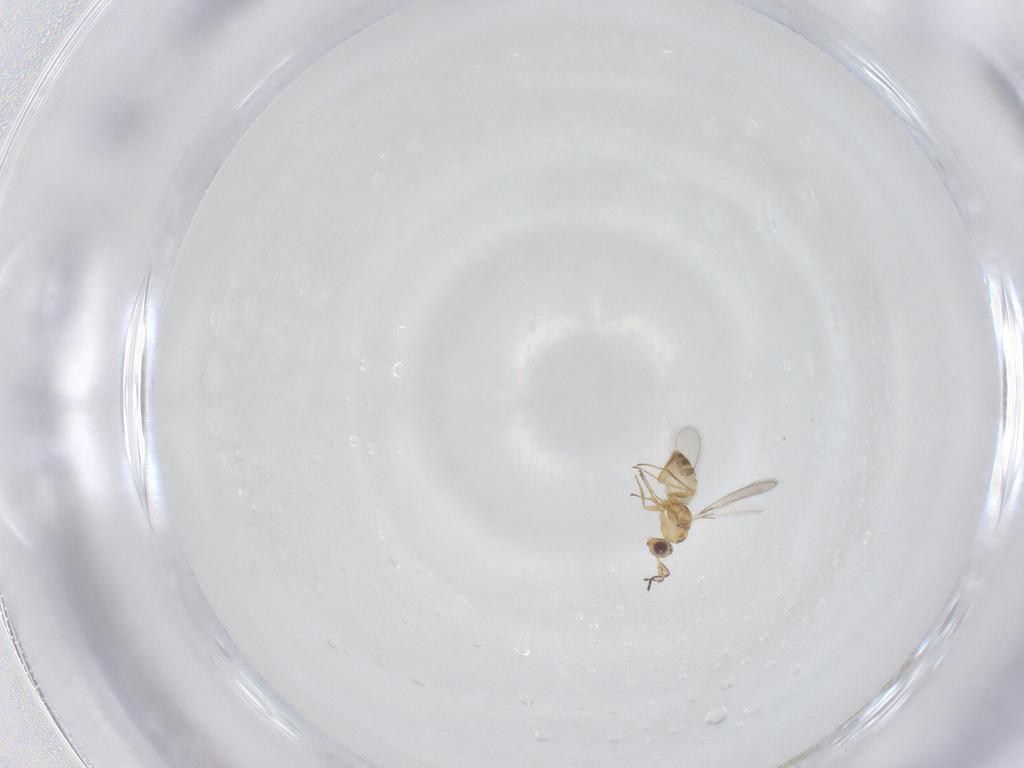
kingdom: Animalia
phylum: Arthropoda
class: Insecta
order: Hymenoptera
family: Mymaridae
